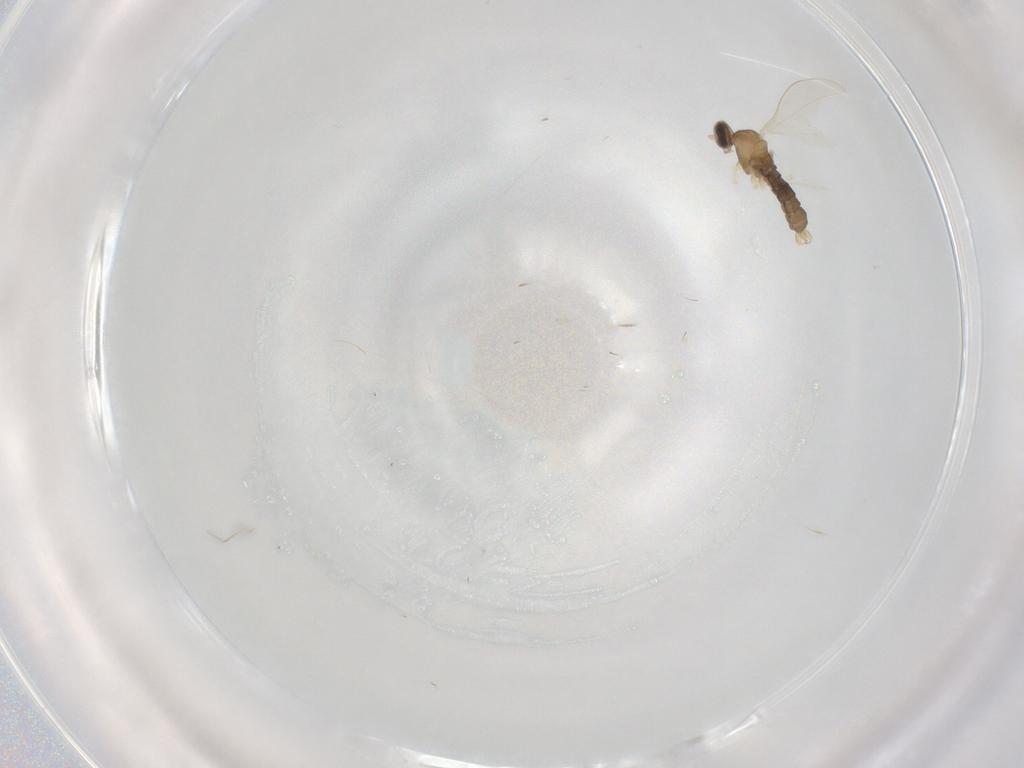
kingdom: Animalia
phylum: Arthropoda
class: Insecta
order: Diptera
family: Cecidomyiidae
